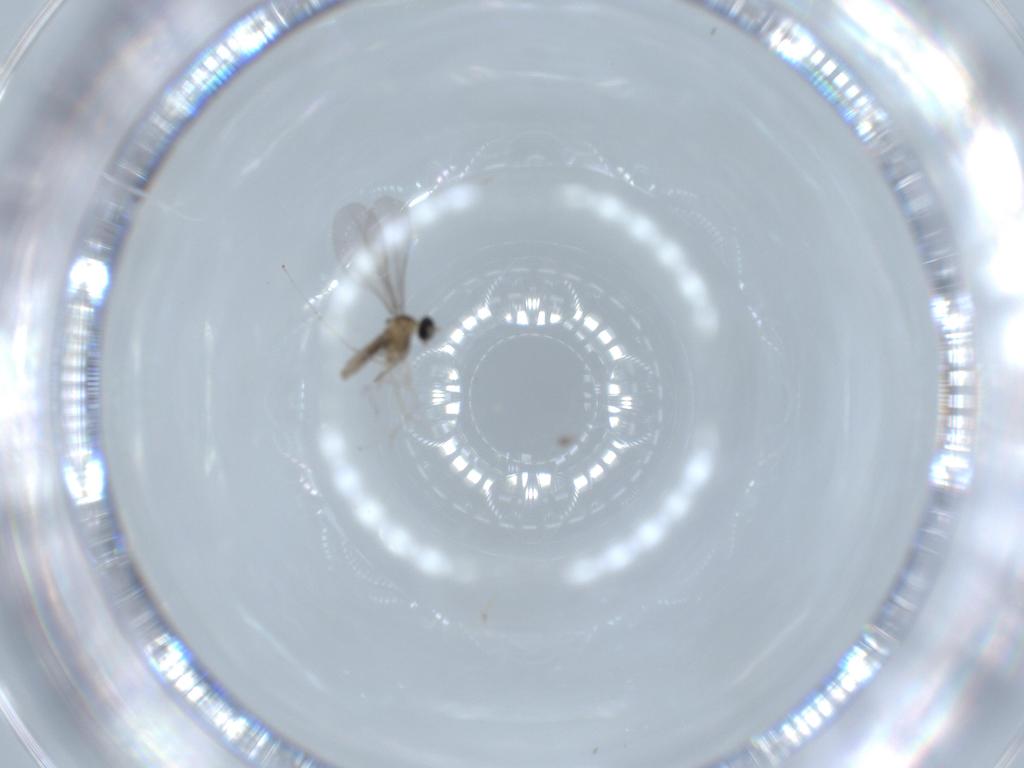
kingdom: Animalia
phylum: Arthropoda
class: Insecta
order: Diptera
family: Cecidomyiidae
